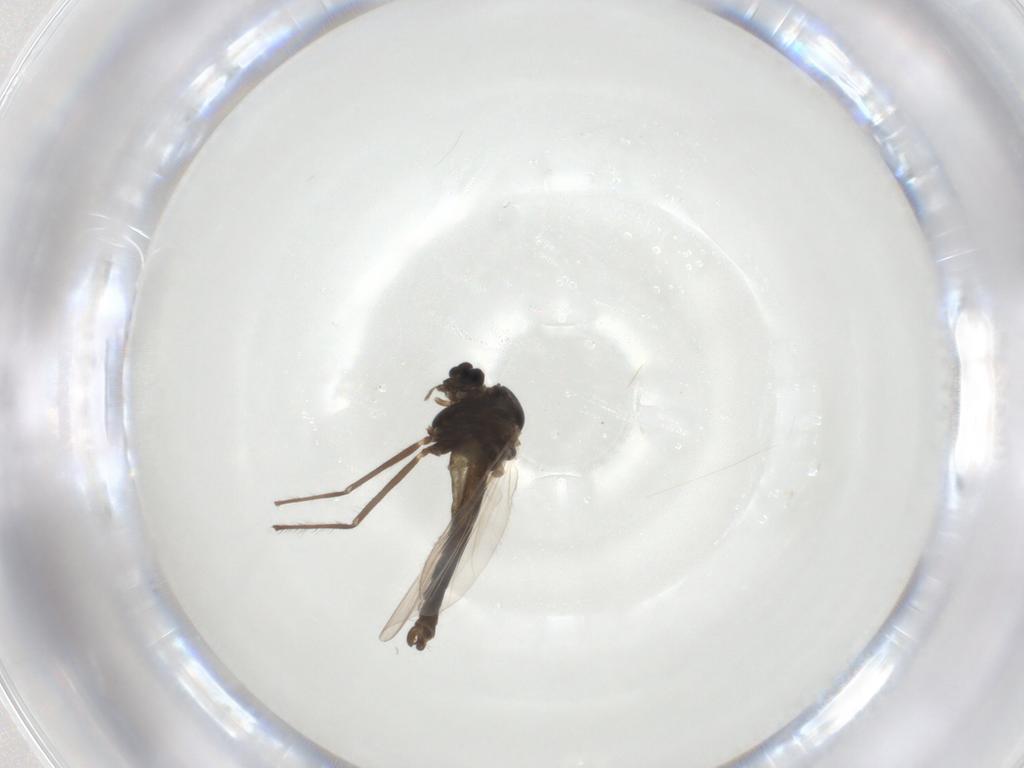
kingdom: Animalia
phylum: Arthropoda
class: Insecta
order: Diptera
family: Chironomidae
